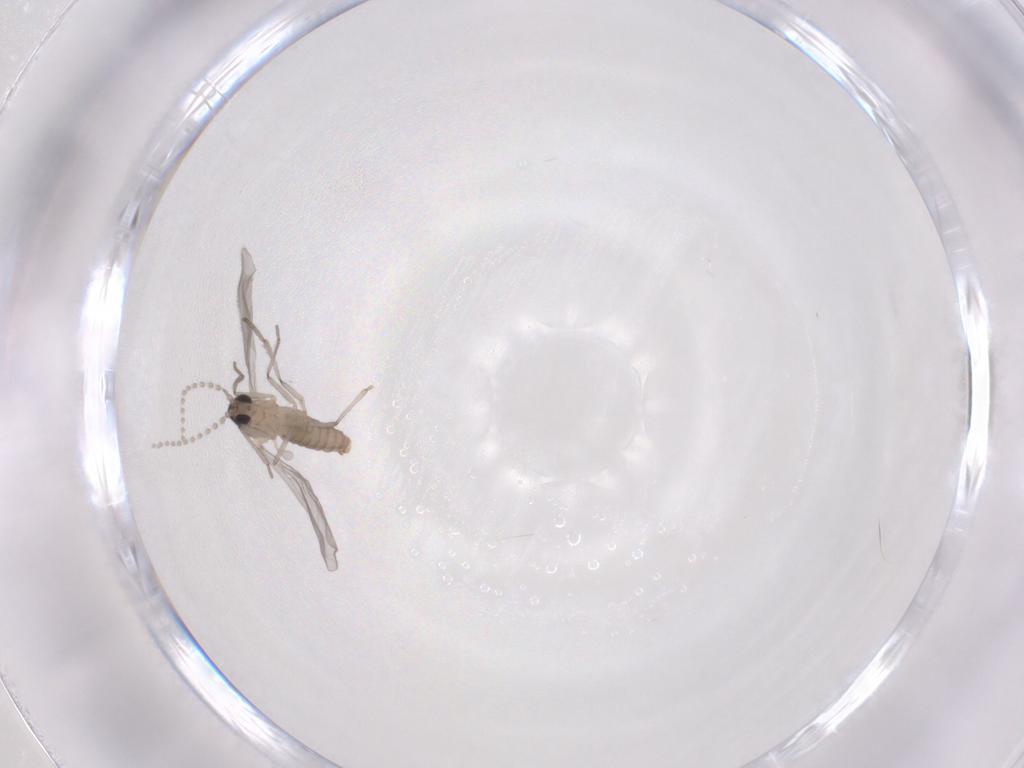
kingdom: Animalia
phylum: Arthropoda
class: Insecta
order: Diptera
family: Cecidomyiidae
